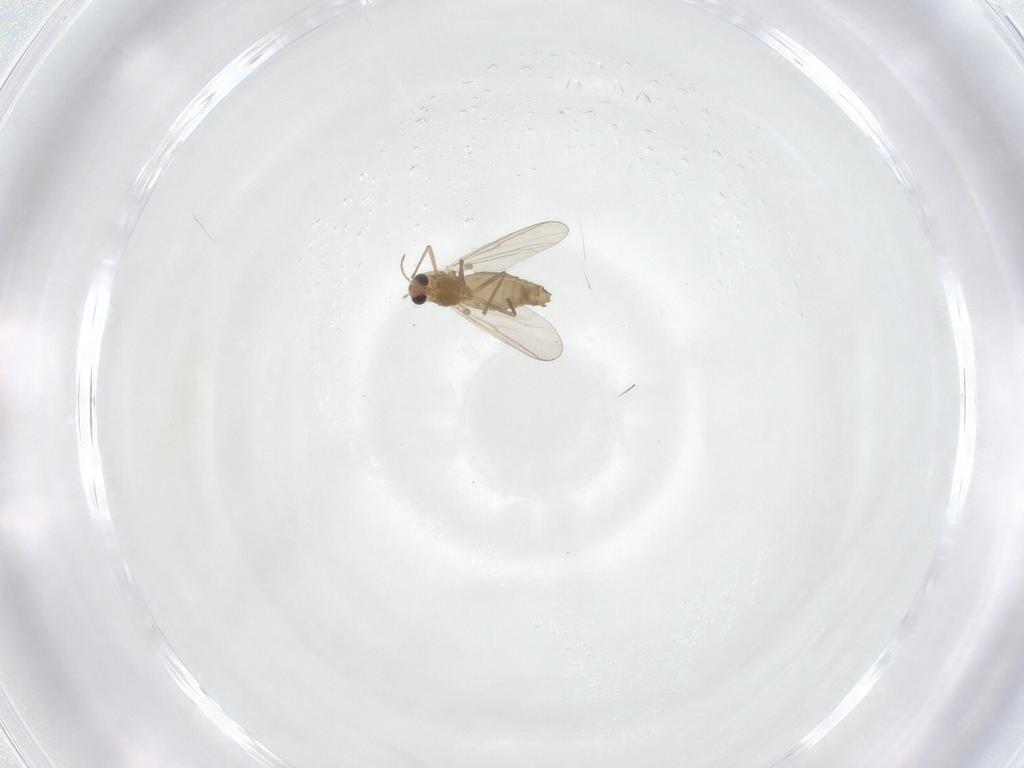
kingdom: Animalia
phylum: Arthropoda
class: Insecta
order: Diptera
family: Chironomidae
